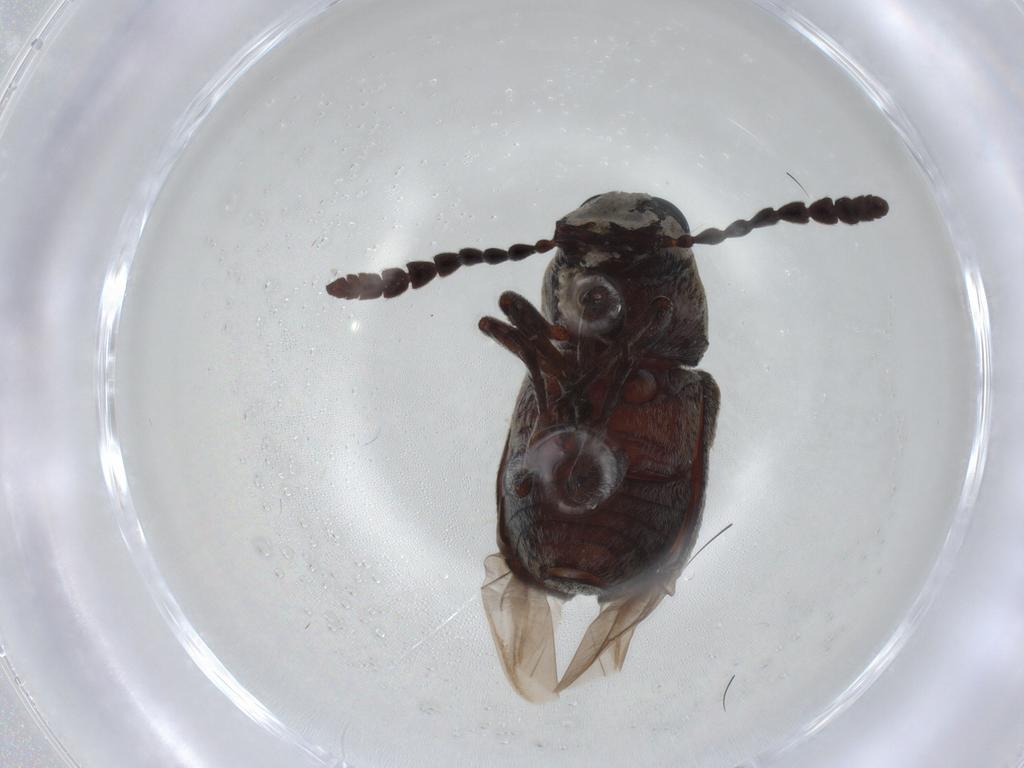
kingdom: Animalia
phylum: Arthropoda
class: Insecta
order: Coleoptera
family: Anthribidae
